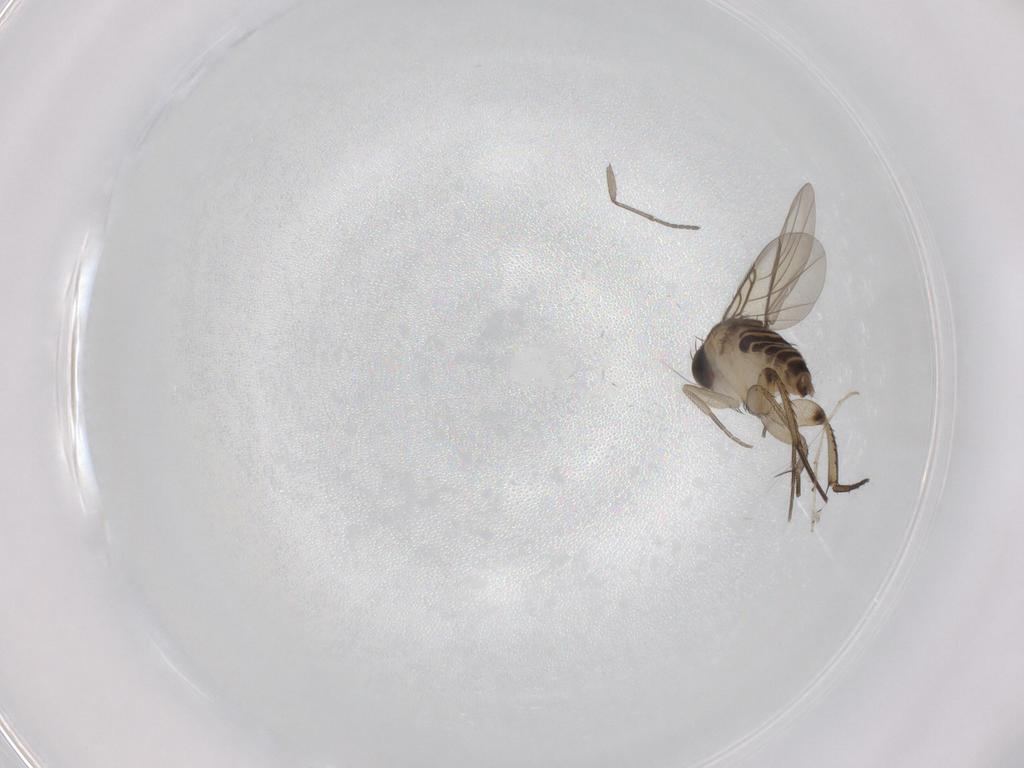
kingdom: Animalia
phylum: Arthropoda
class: Insecta
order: Diptera
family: Phoridae
